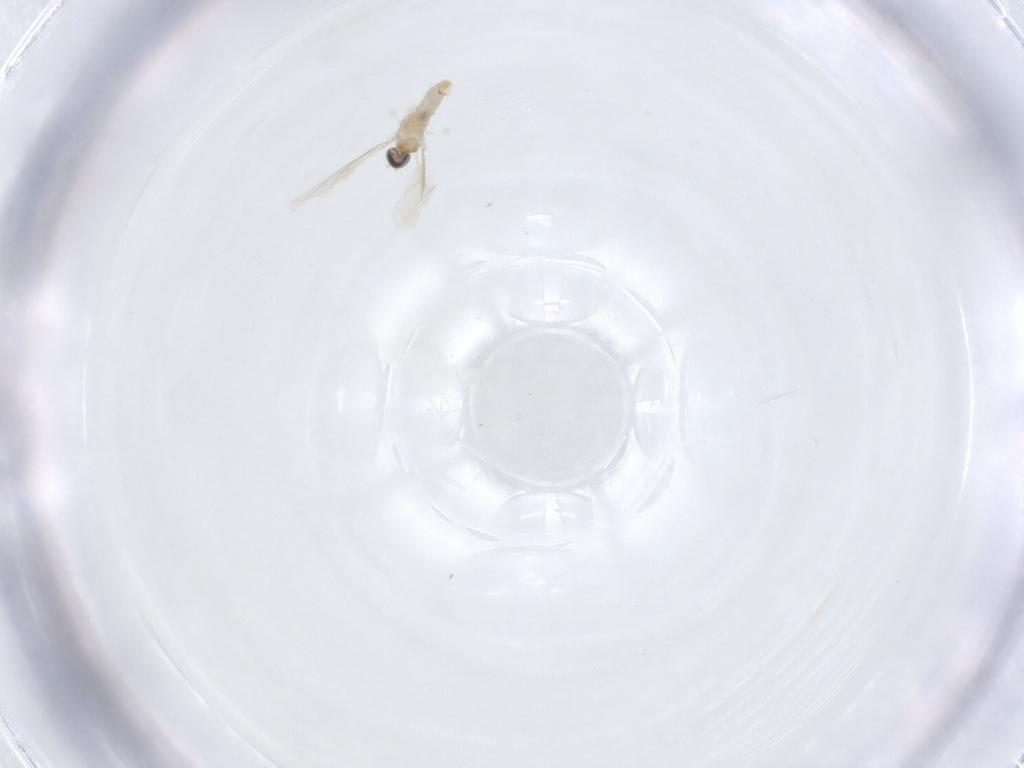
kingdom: Animalia
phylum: Arthropoda
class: Insecta
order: Diptera
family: Cecidomyiidae
